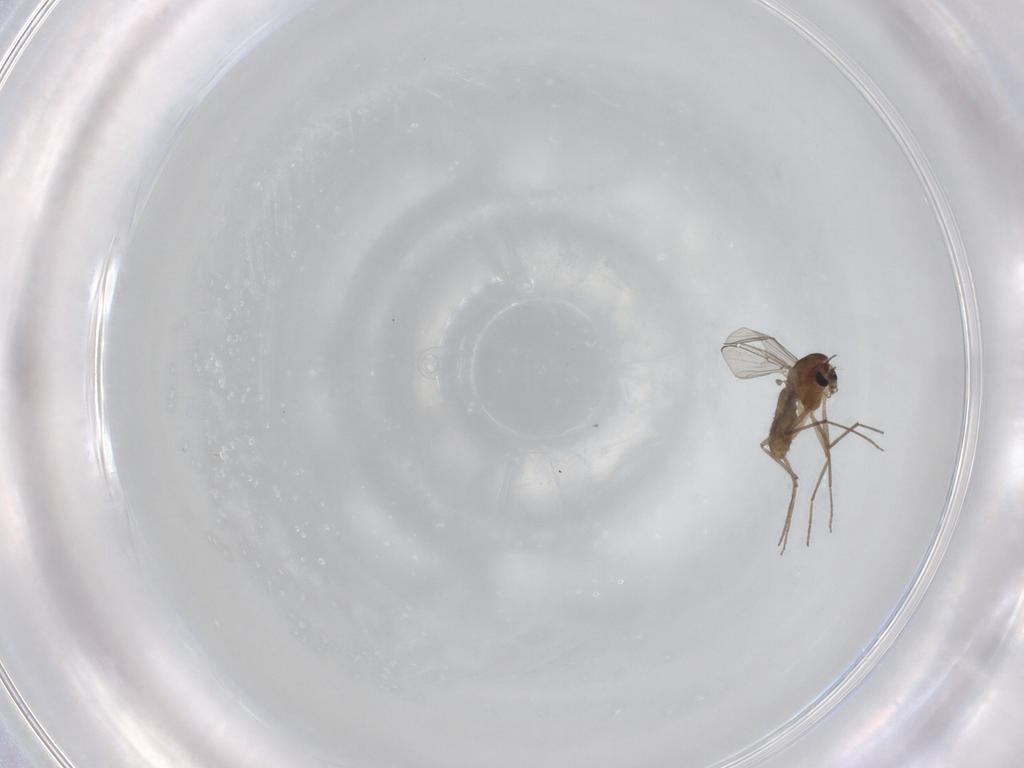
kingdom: Animalia
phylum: Arthropoda
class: Insecta
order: Diptera
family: Chironomidae
